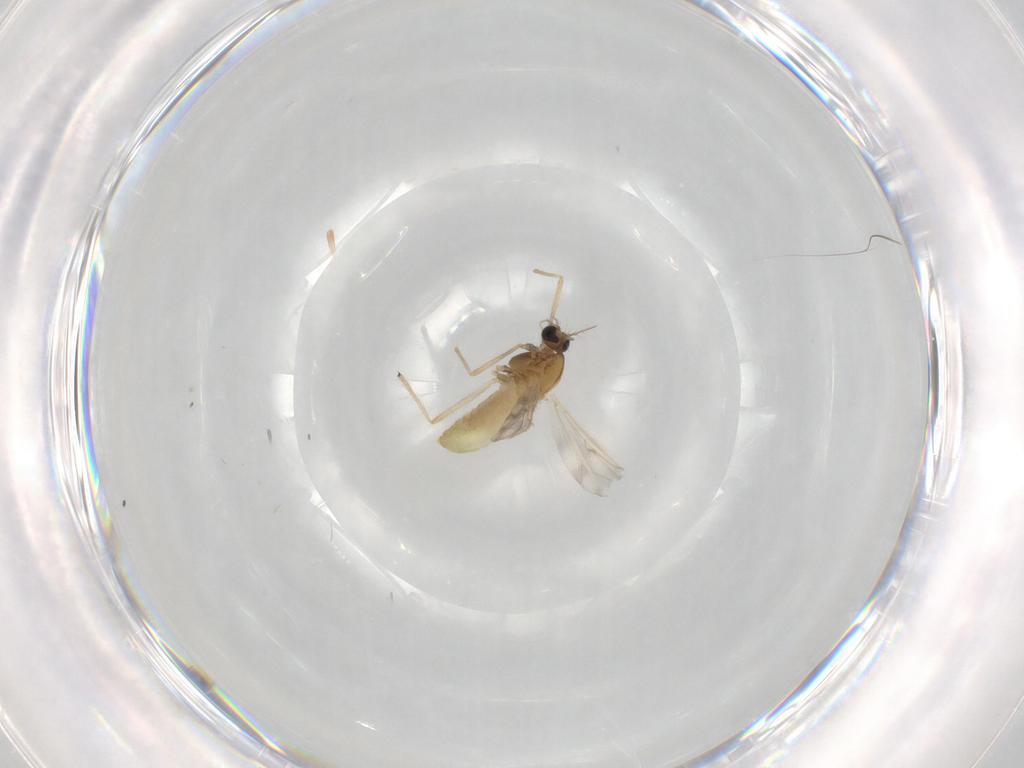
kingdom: Animalia
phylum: Arthropoda
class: Insecta
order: Diptera
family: Chironomidae
